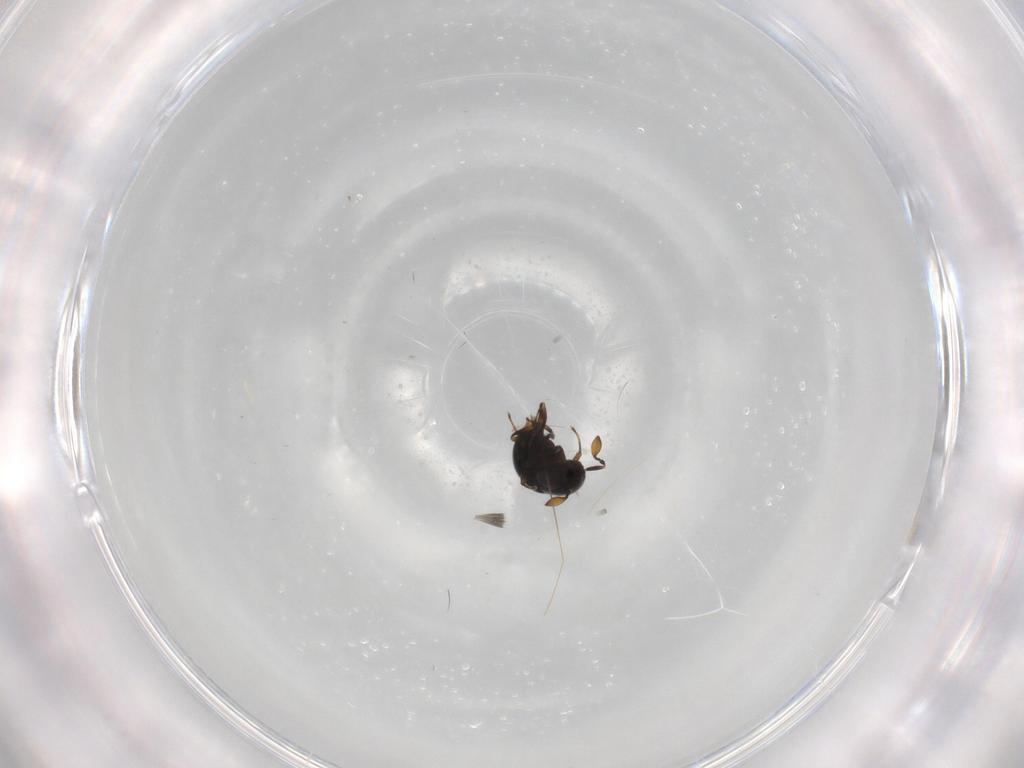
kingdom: Animalia
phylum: Arthropoda
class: Insecta
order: Hymenoptera
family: Scelionidae
